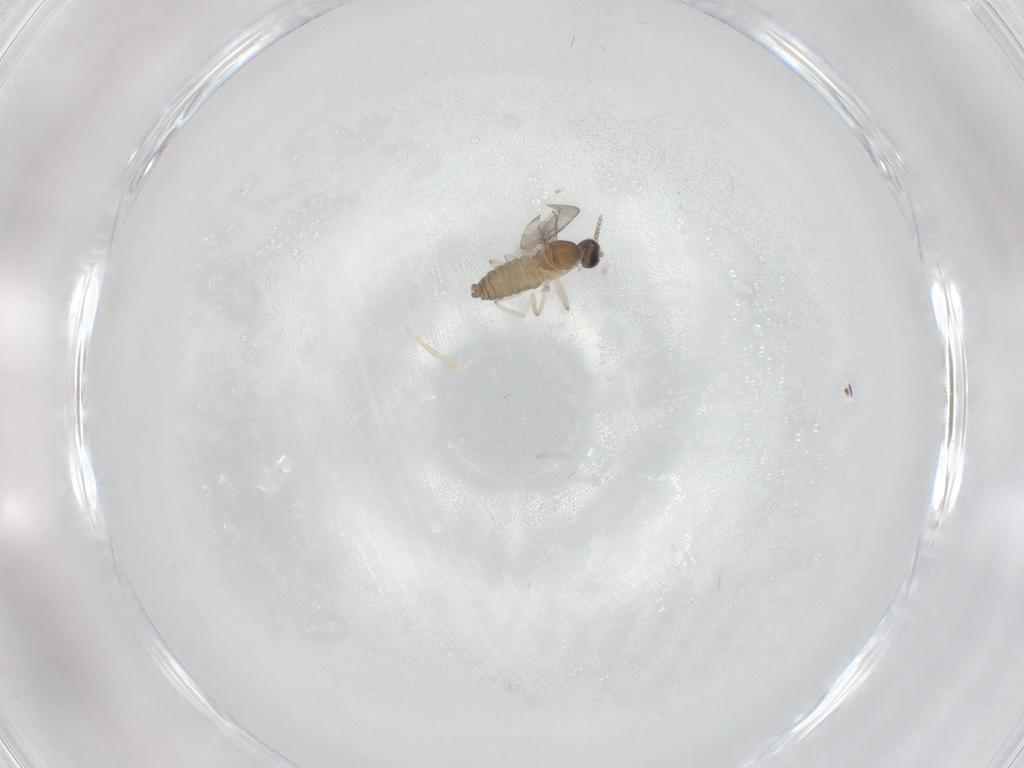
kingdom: Animalia
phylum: Arthropoda
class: Insecta
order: Diptera
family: Cecidomyiidae
